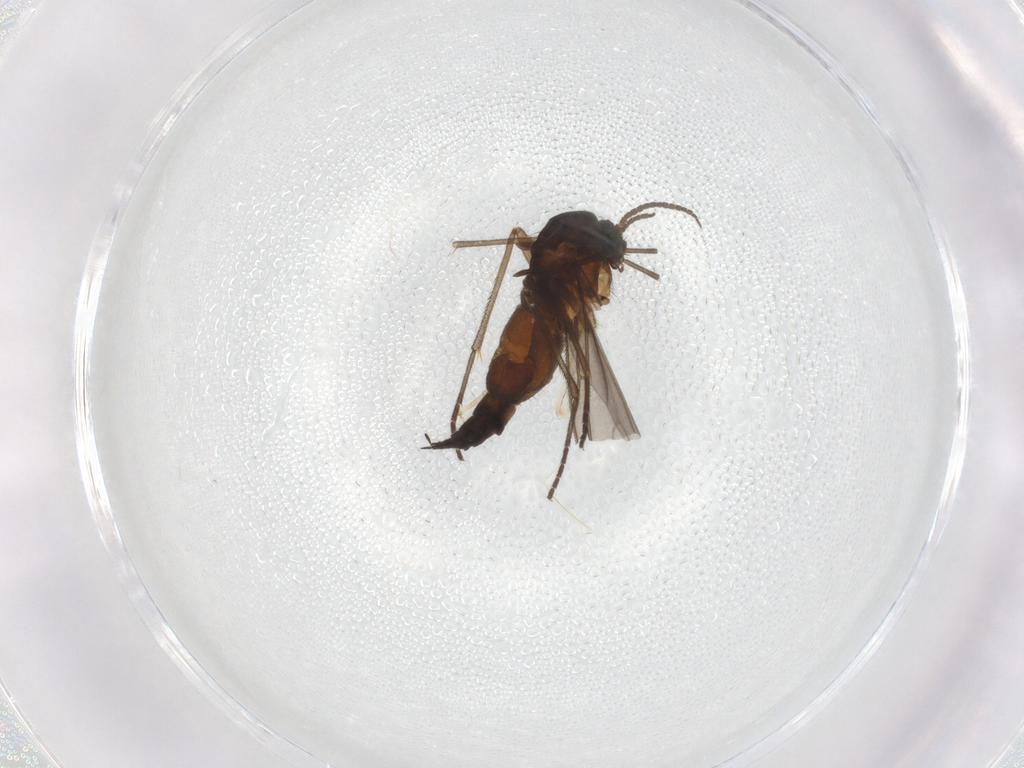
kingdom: Animalia
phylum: Arthropoda
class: Insecta
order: Diptera
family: Sciaridae
